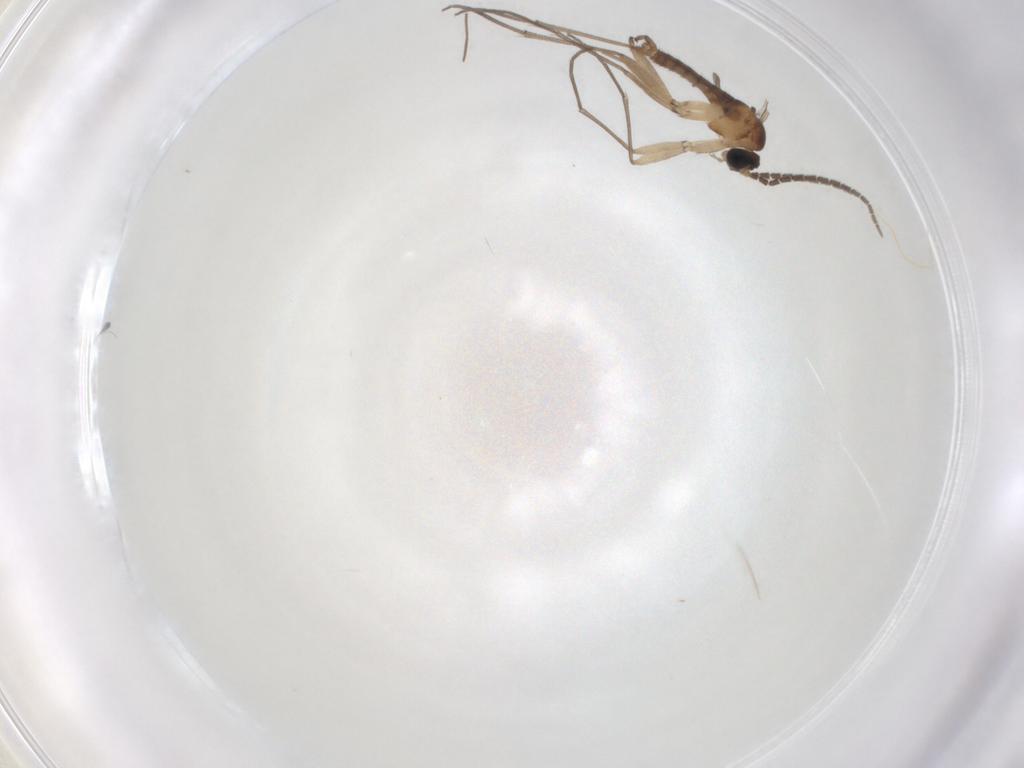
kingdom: Animalia
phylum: Arthropoda
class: Insecta
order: Diptera
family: Sciaridae
